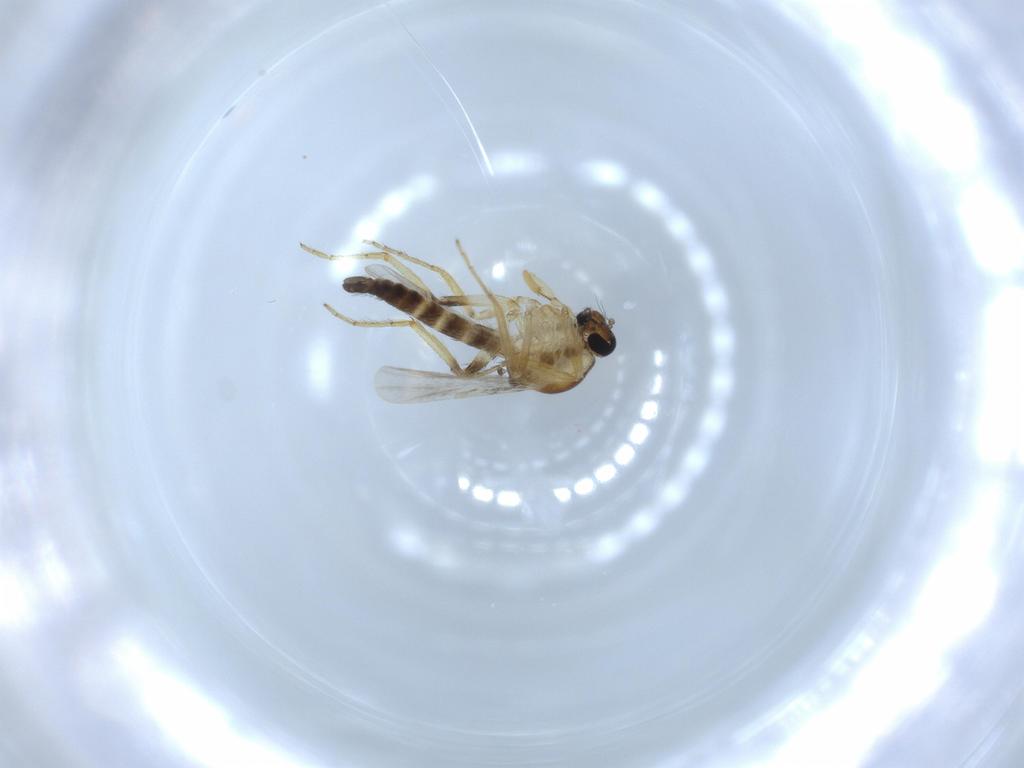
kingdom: Animalia
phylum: Arthropoda
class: Insecta
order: Diptera
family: Ceratopogonidae
